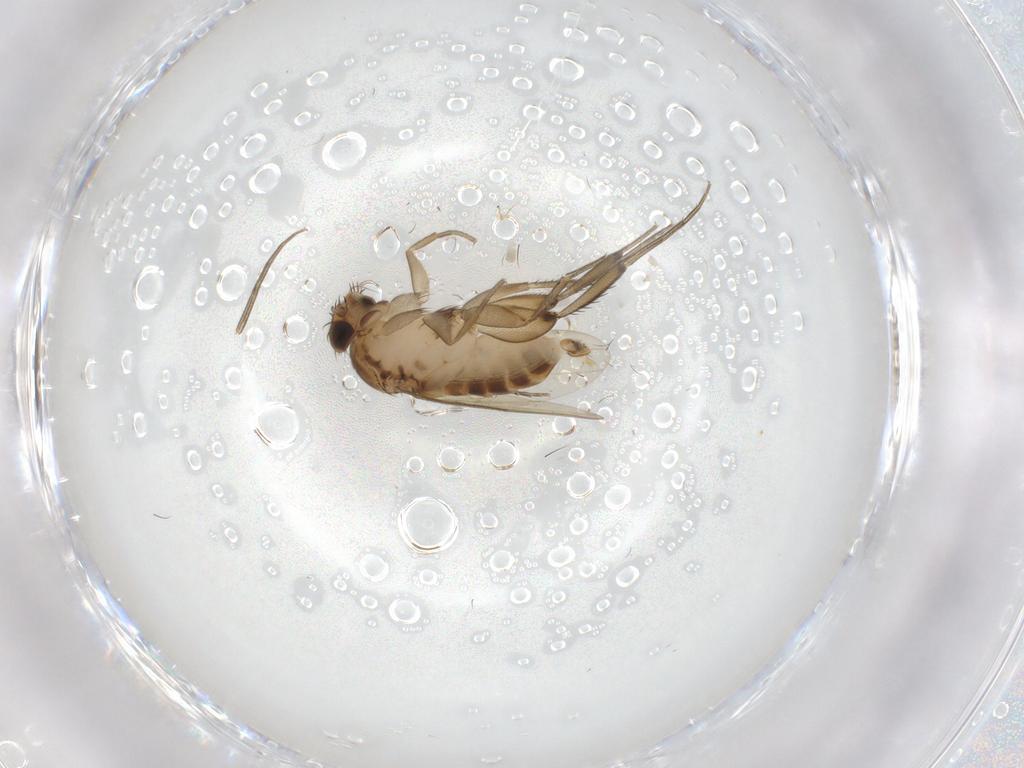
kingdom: Animalia
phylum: Arthropoda
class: Insecta
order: Diptera
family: Phoridae
